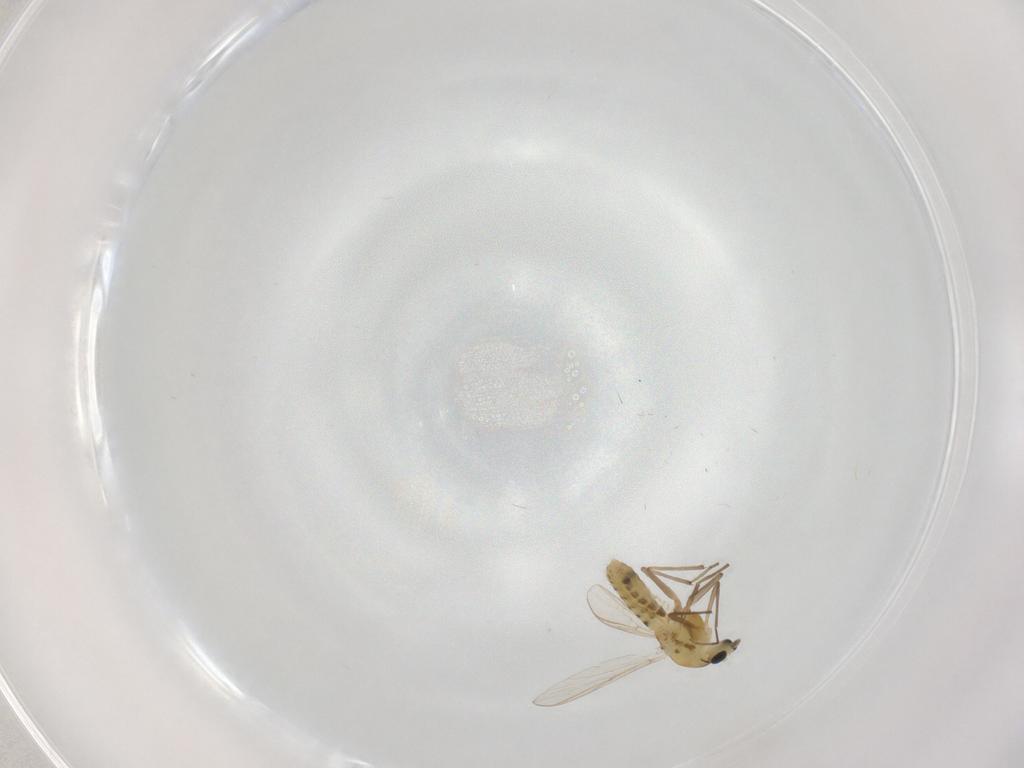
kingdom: Animalia
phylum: Arthropoda
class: Insecta
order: Diptera
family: Chironomidae
